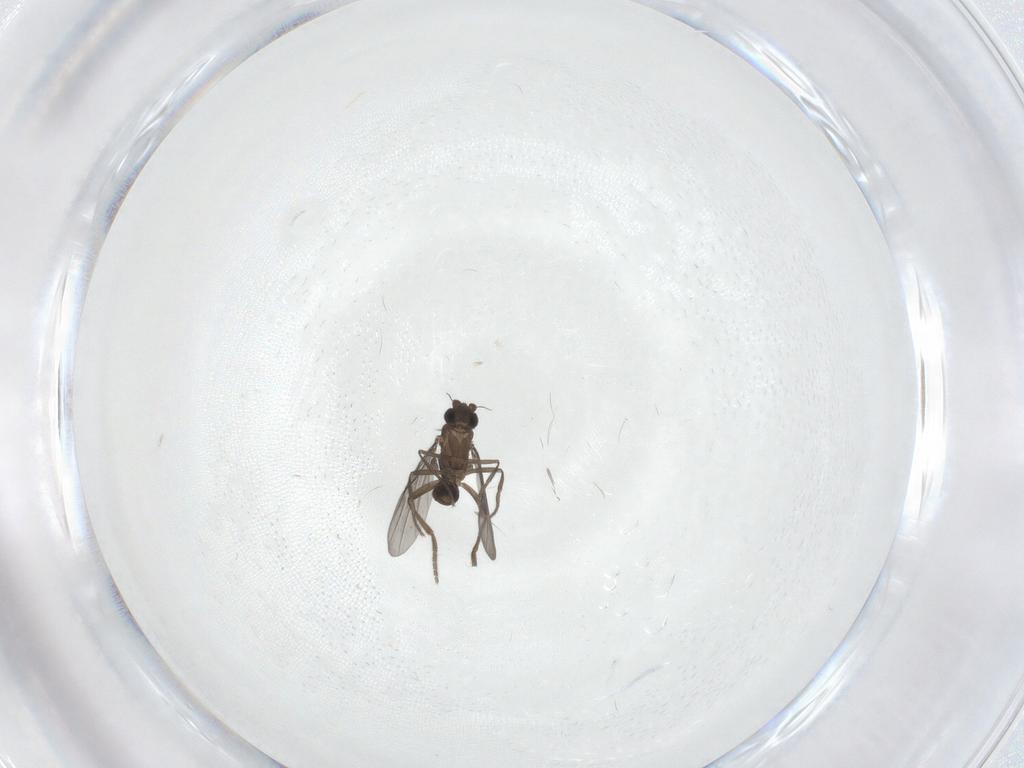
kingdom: Animalia
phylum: Arthropoda
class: Insecta
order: Diptera
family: Phoridae
